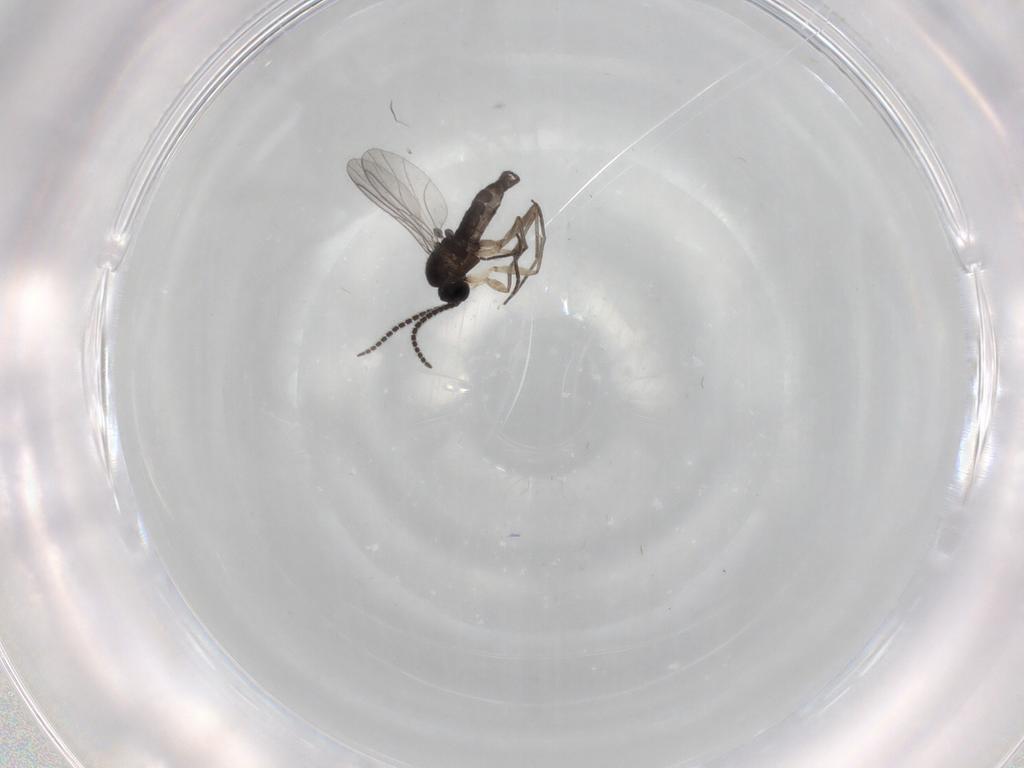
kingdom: Animalia
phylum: Arthropoda
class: Insecta
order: Diptera
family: Muscidae
